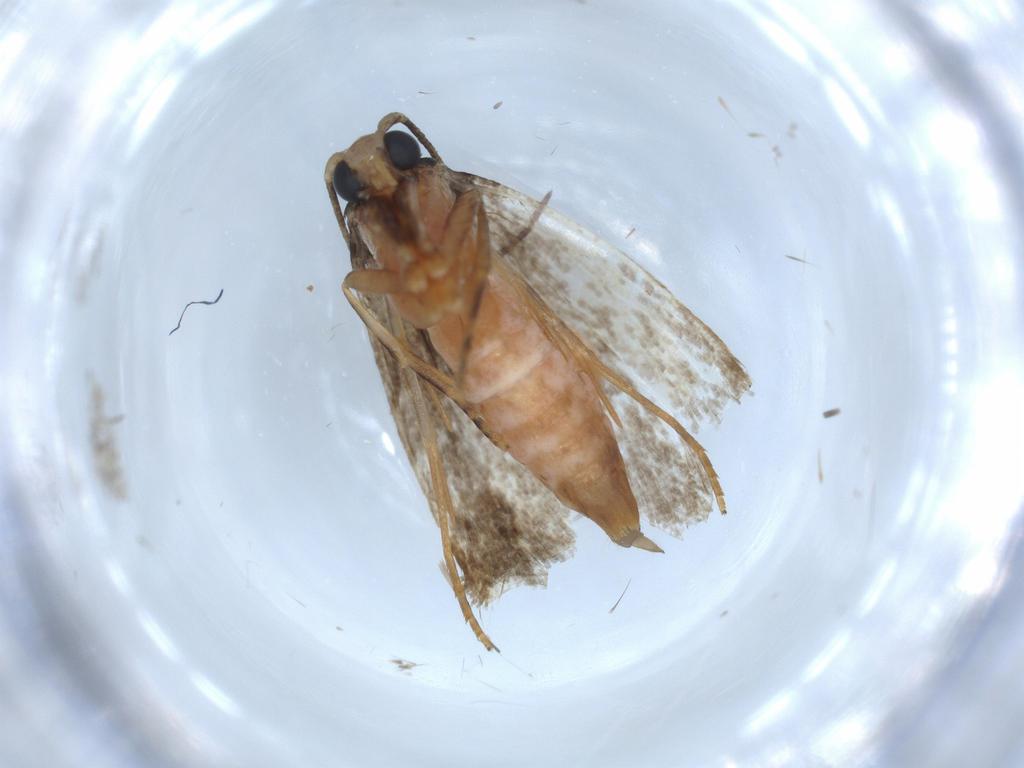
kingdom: Animalia
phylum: Arthropoda
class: Insecta
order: Lepidoptera
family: Tineidae
